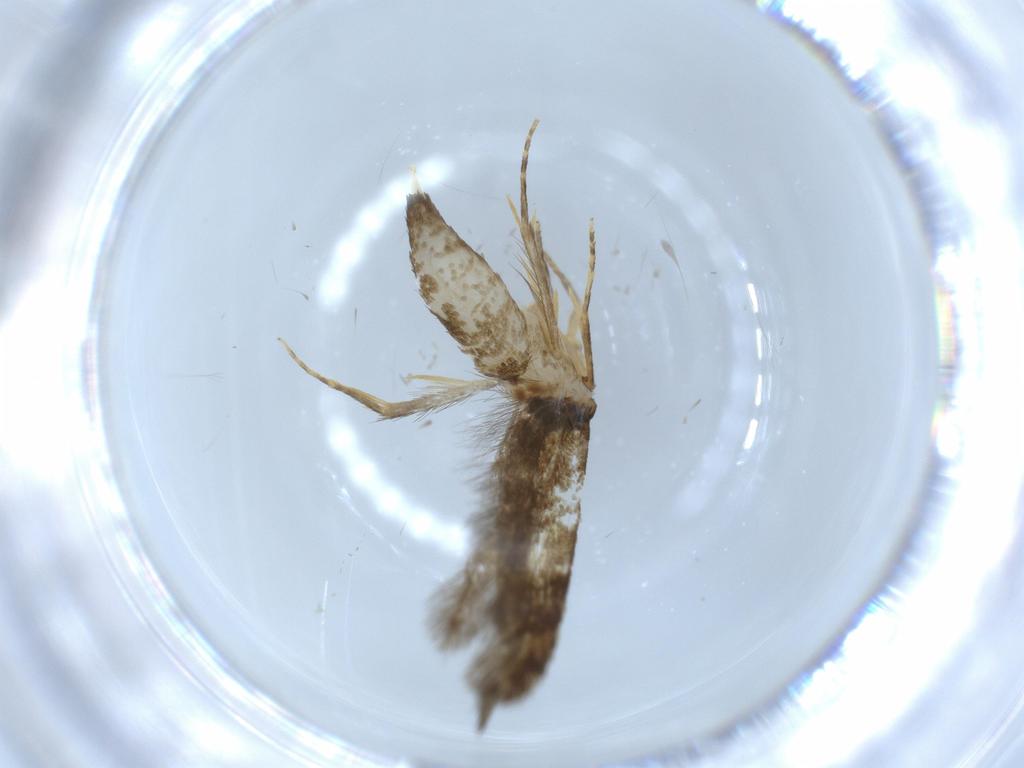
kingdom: Animalia
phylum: Arthropoda
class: Insecta
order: Lepidoptera
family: Tineidae
